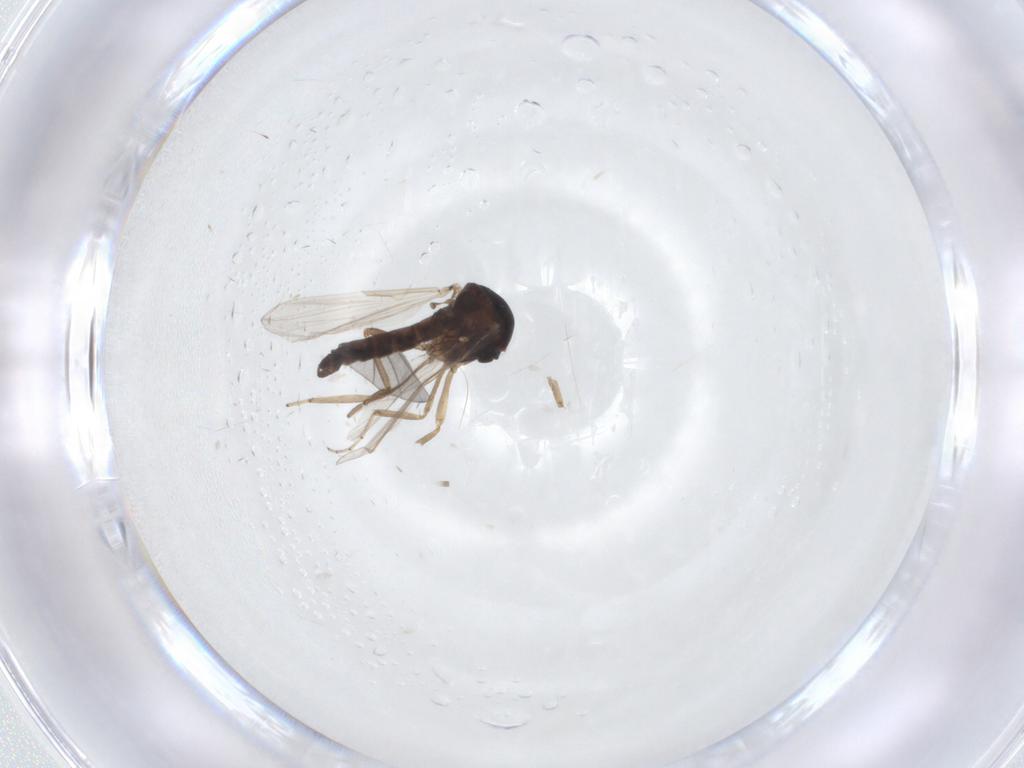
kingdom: Animalia
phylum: Arthropoda
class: Insecta
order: Diptera
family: Ceratopogonidae
